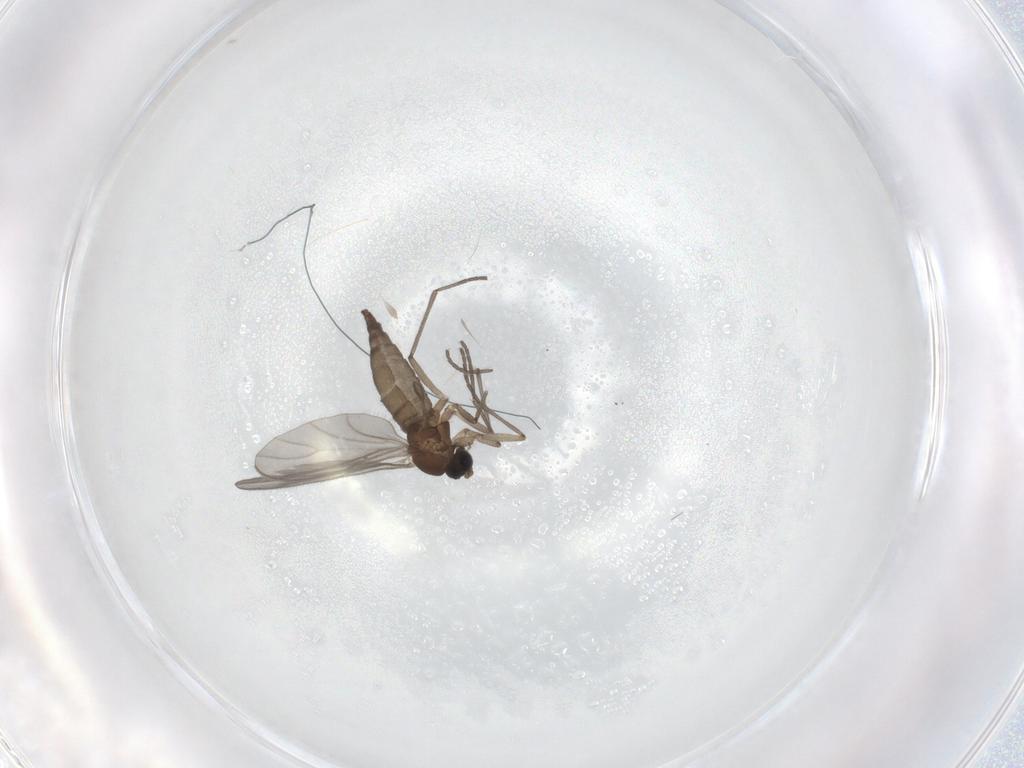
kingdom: Animalia
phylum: Arthropoda
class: Insecta
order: Diptera
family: Sciaridae
